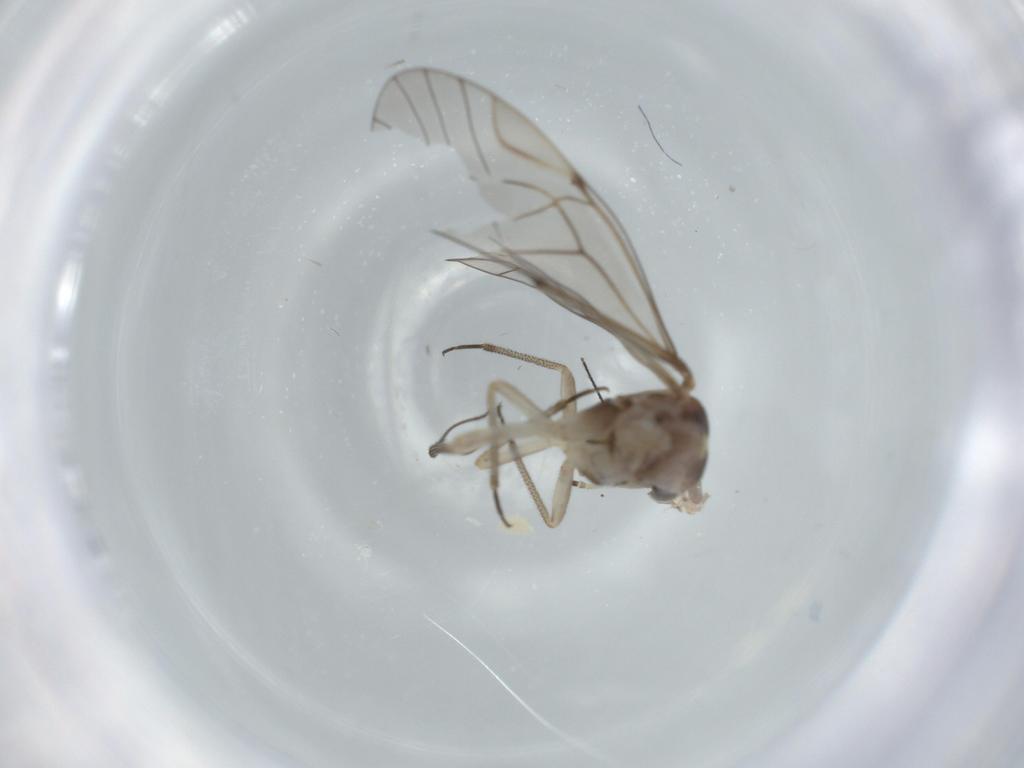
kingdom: Animalia
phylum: Arthropoda
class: Insecta
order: Psocodea
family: Psocidae
